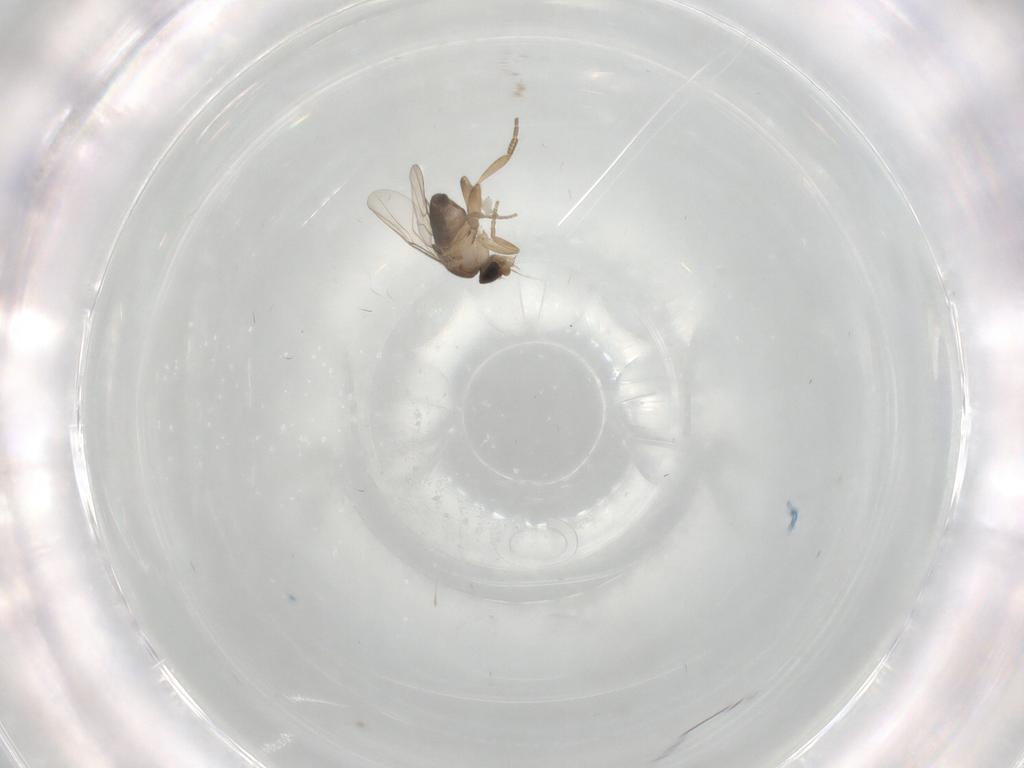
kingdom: Animalia
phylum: Arthropoda
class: Insecta
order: Diptera
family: Phoridae
